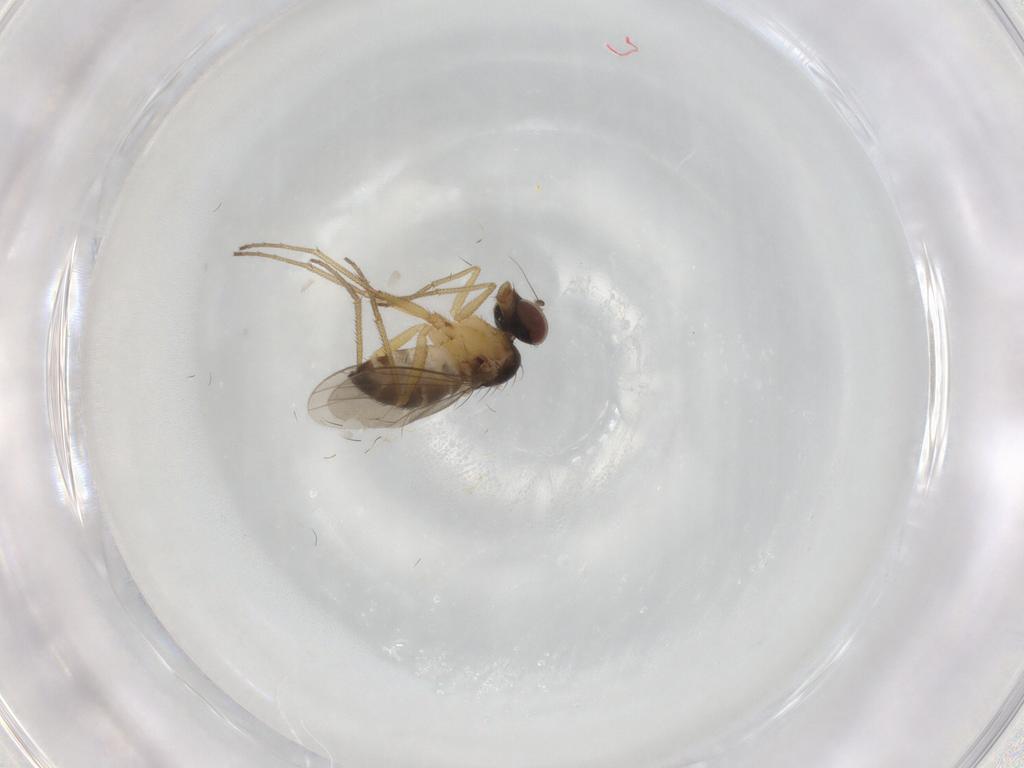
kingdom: Animalia
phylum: Arthropoda
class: Insecta
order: Diptera
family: Dolichopodidae
